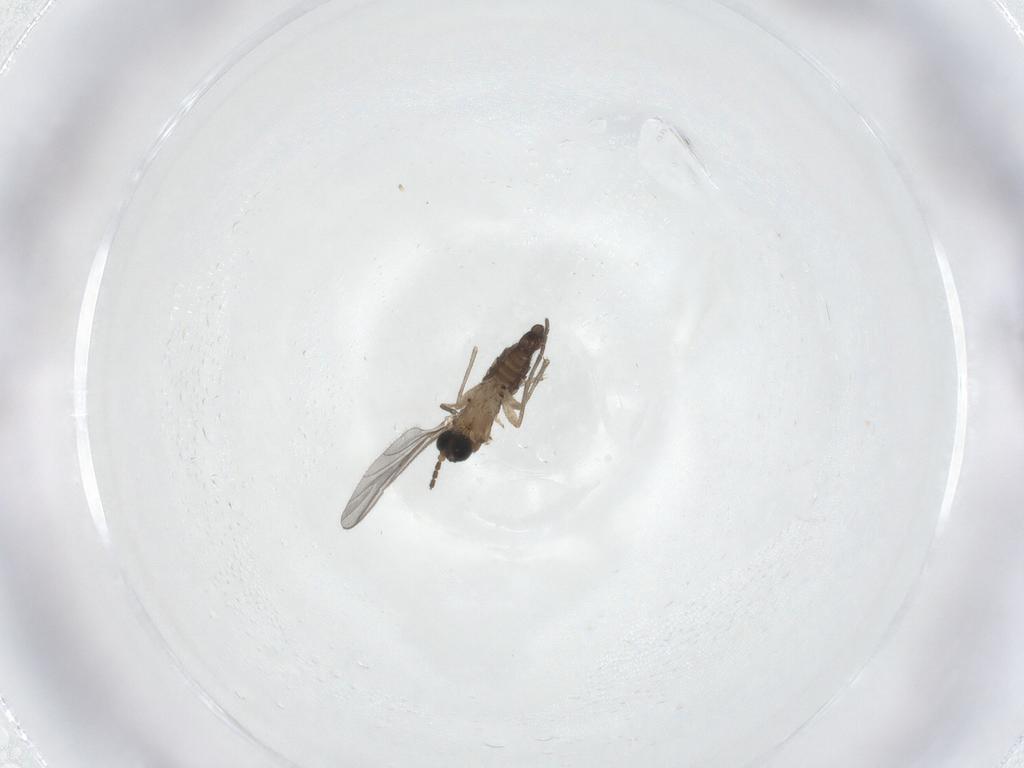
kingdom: Animalia
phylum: Arthropoda
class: Insecta
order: Diptera
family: Sciaridae
